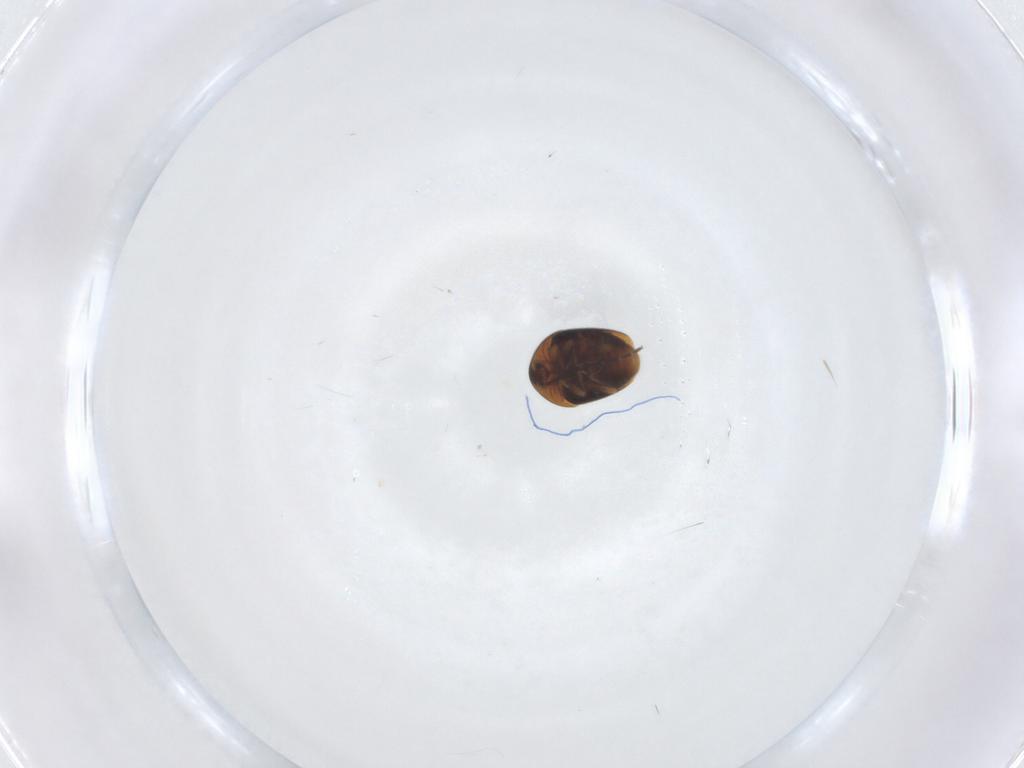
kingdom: Animalia
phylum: Arthropoda
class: Insecta
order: Coleoptera
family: Corylophidae
